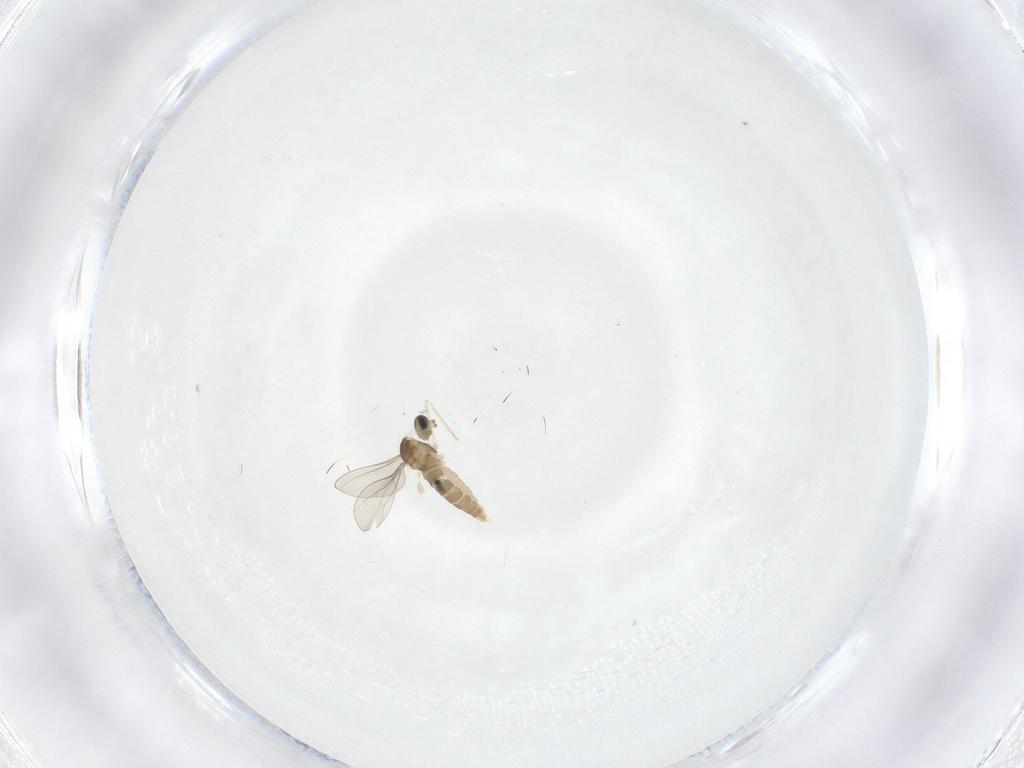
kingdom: Animalia
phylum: Arthropoda
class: Insecta
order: Diptera
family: Cecidomyiidae
